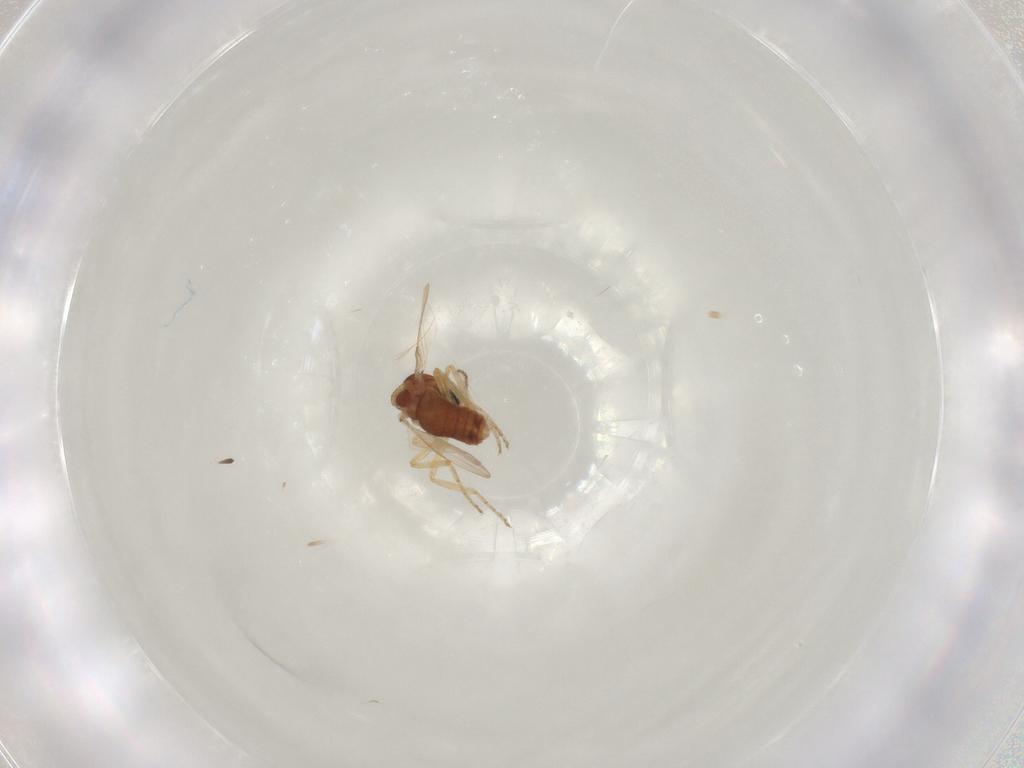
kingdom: Animalia
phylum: Arthropoda
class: Insecta
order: Diptera
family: Ceratopogonidae
